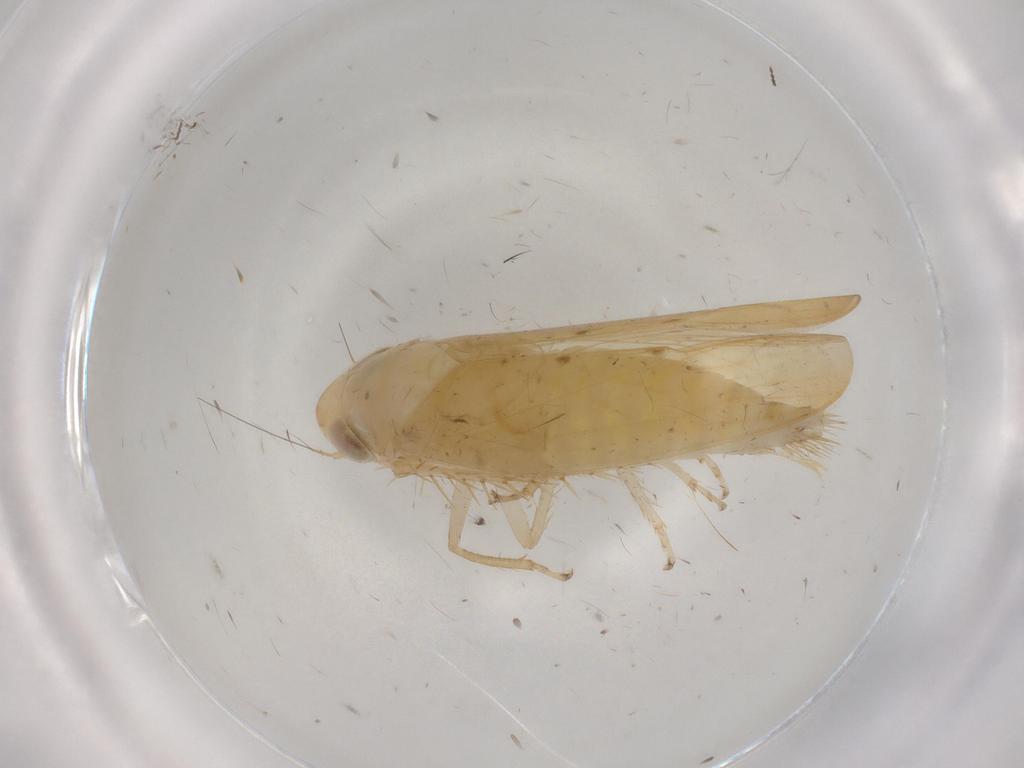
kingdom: Animalia
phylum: Arthropoda
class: Insecta
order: Hemiptera
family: Cicadellidae
